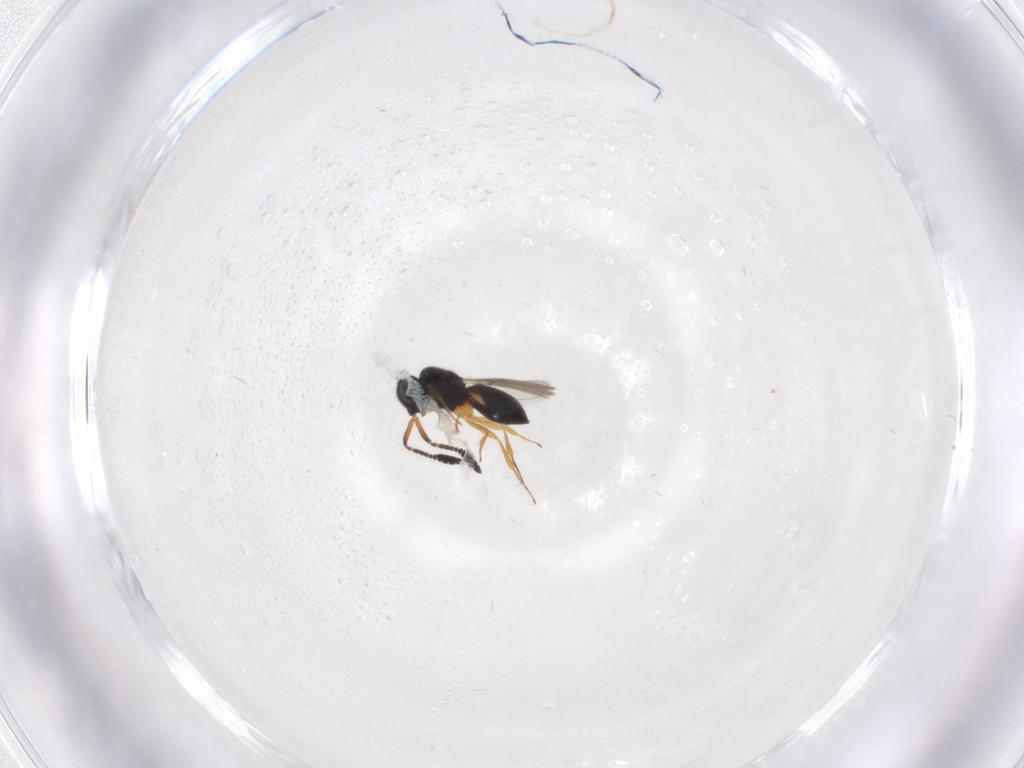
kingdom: Animalia
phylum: Arthropoda
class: Insecta
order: Hymenoptera
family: Scelionidae
